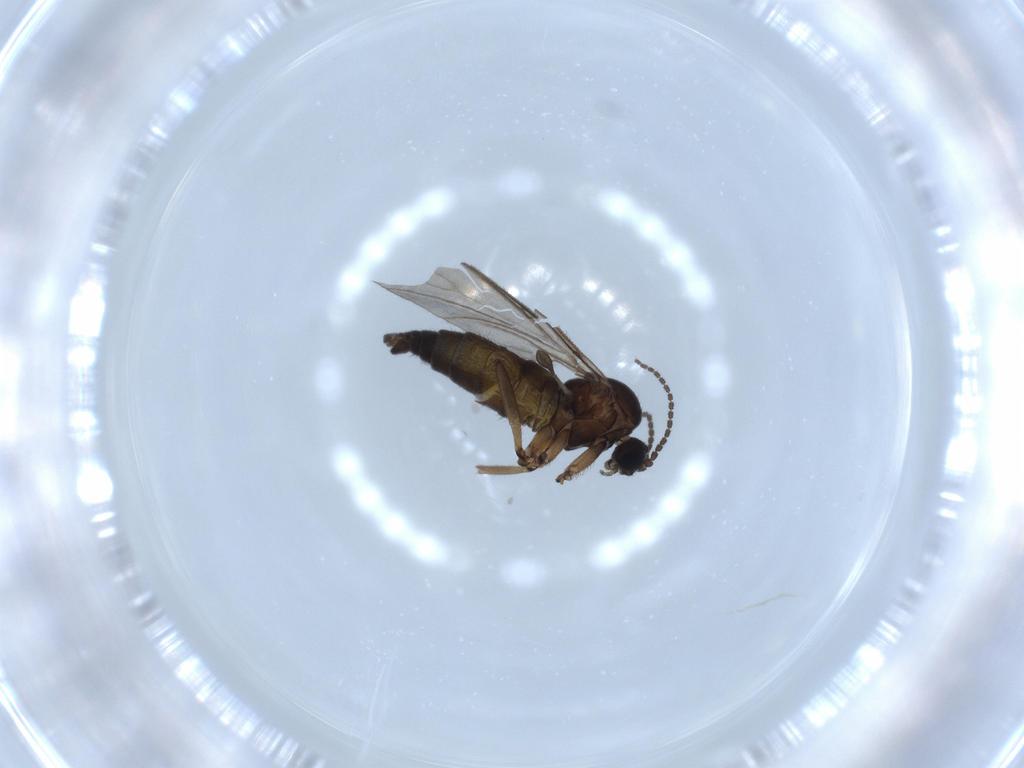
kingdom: Animalia
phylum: Arthropoda
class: Insecta
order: Diptera
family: Sciaridae
